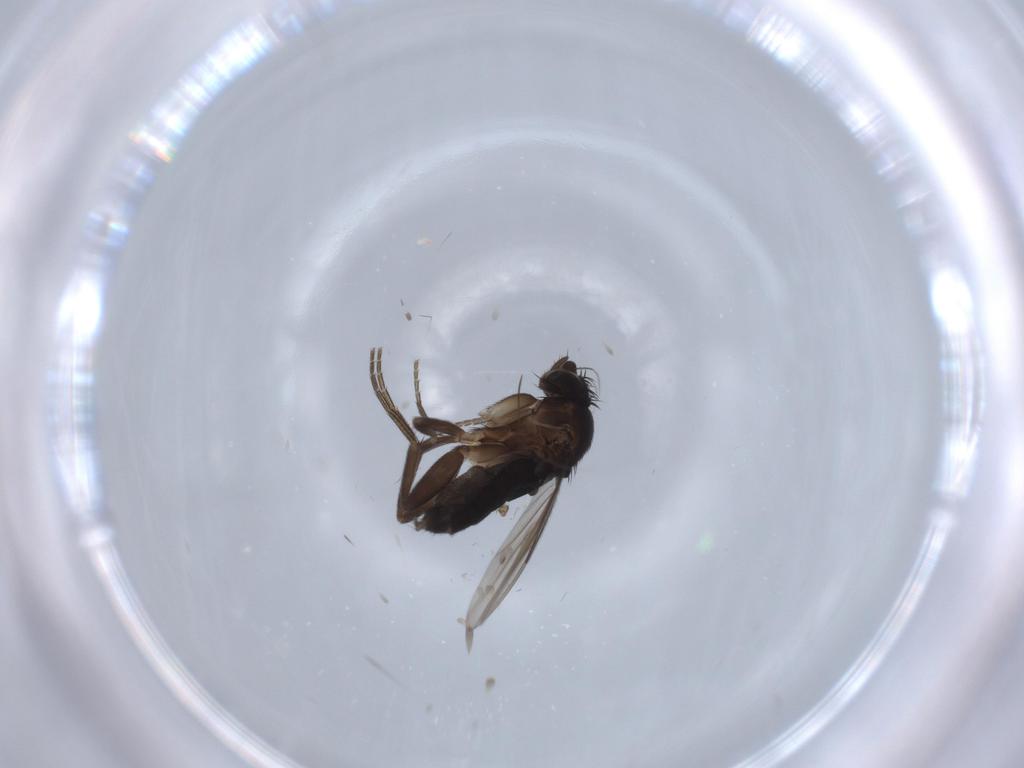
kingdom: Animalia
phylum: Arthropoda
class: Insecta
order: Diptera
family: Phoridae
